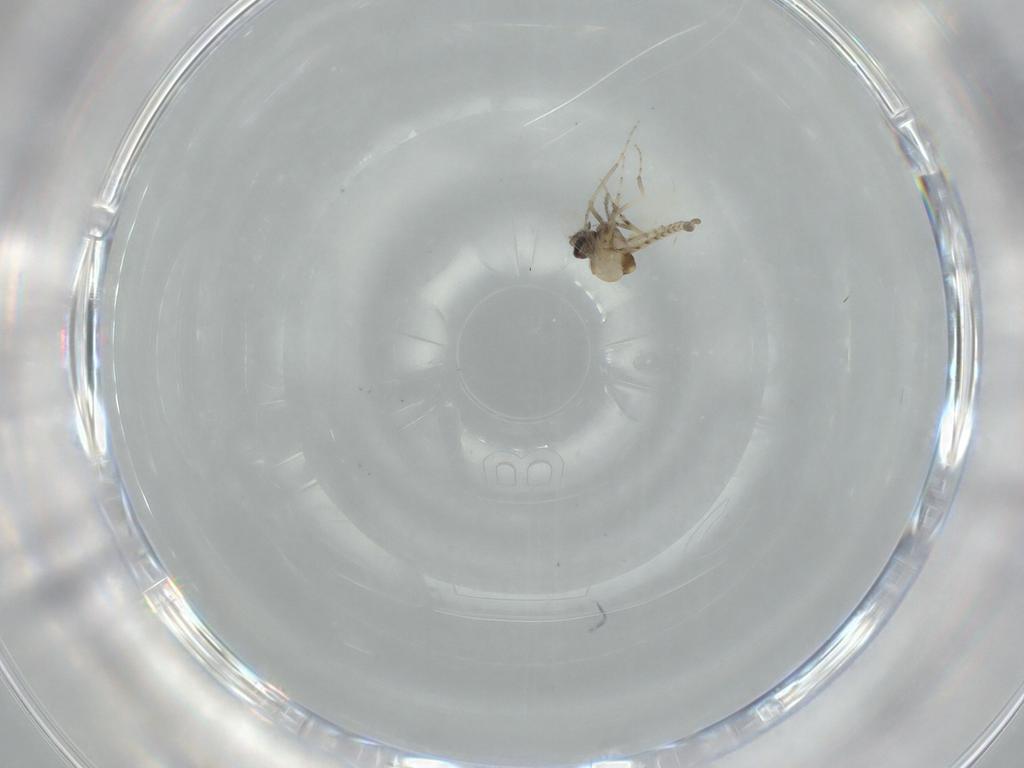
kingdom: Animalia
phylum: Arthropoda
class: Insecta
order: Diptera
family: Ceratopogonidae
